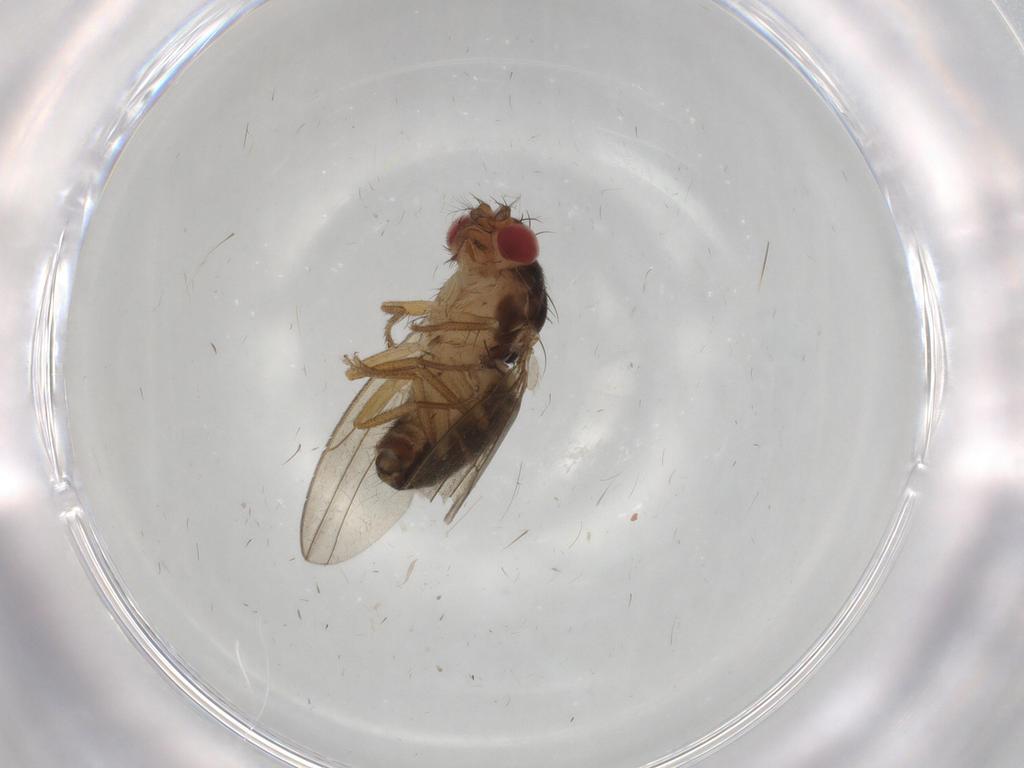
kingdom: Animalia
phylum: Arthropoda
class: Insecta
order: Diptera
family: Drosophilidae
